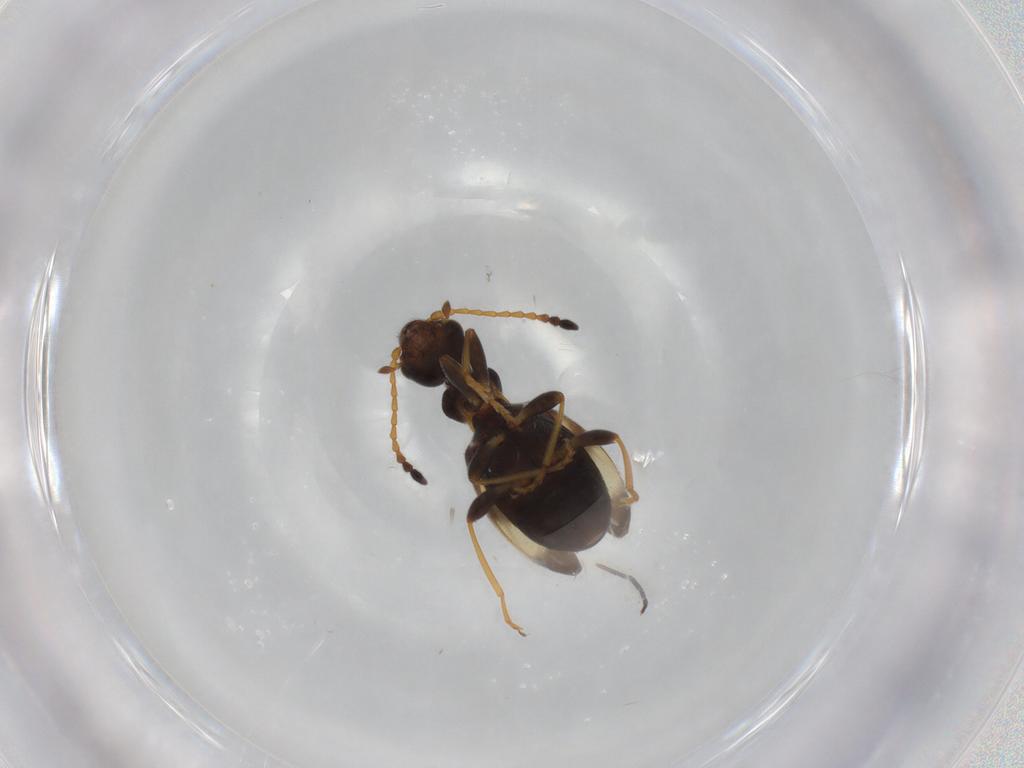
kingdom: Animalia
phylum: Arthropoda
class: Insecta
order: Coleoptera
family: Anthicidae
